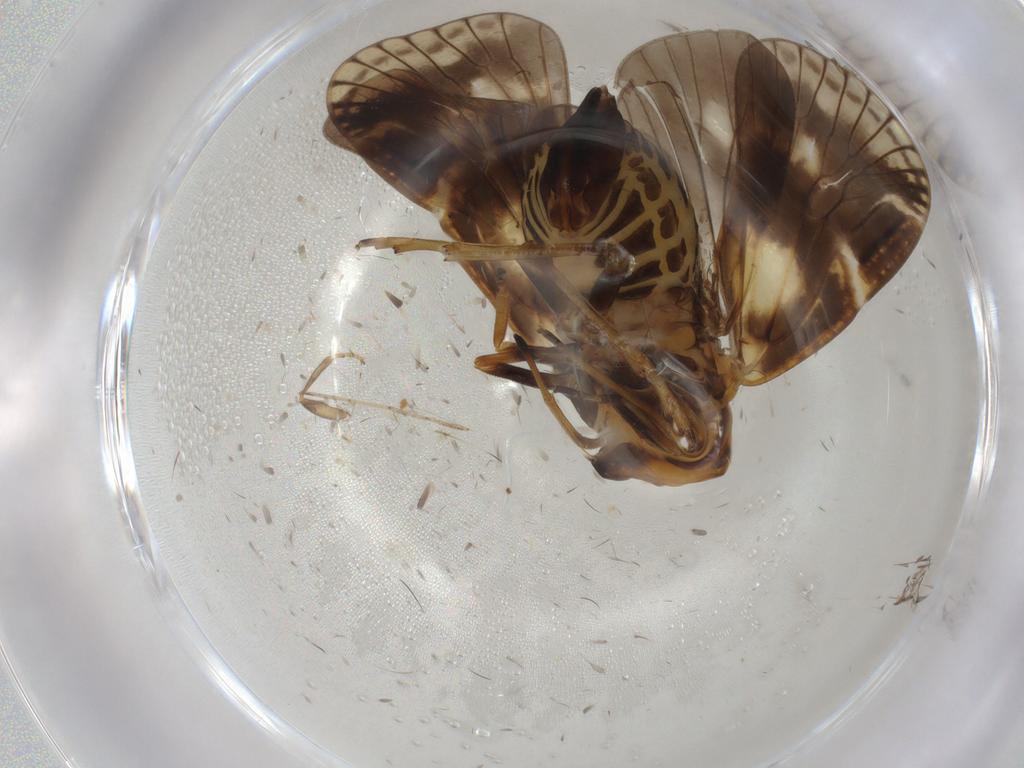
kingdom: Animalia
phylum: Arthropoda
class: Insecta
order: Hemiptera
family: Cixiidae
